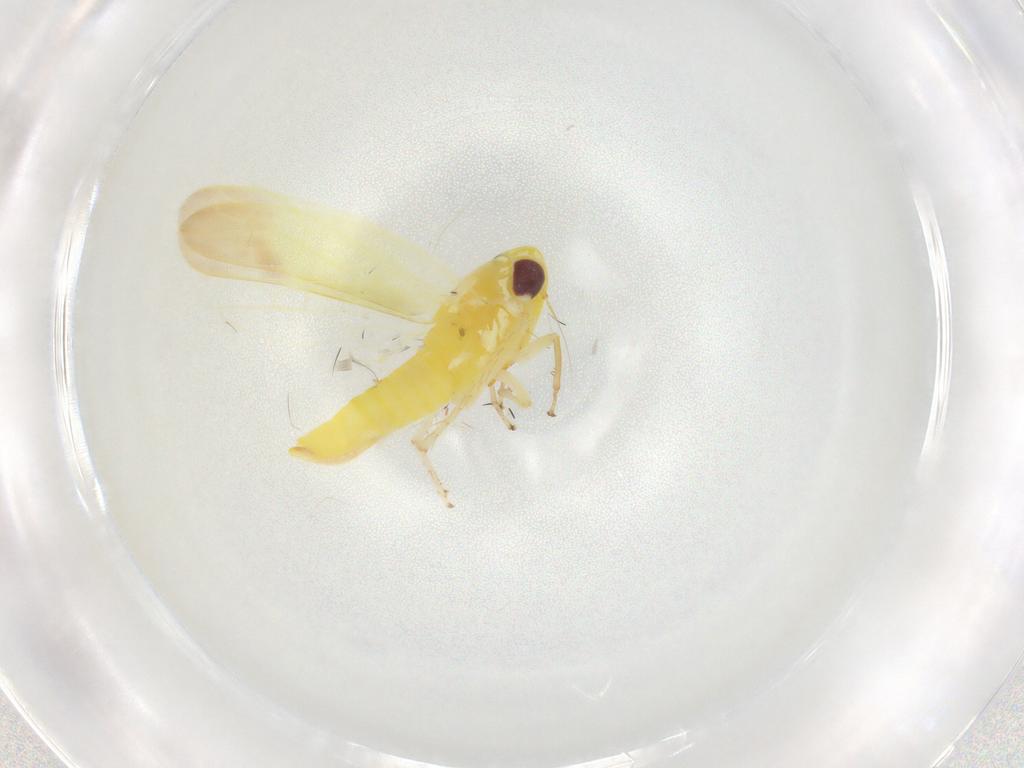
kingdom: Animalia
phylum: Arthropoda
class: Insecta
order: Hemiptera
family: Cicadellidae
